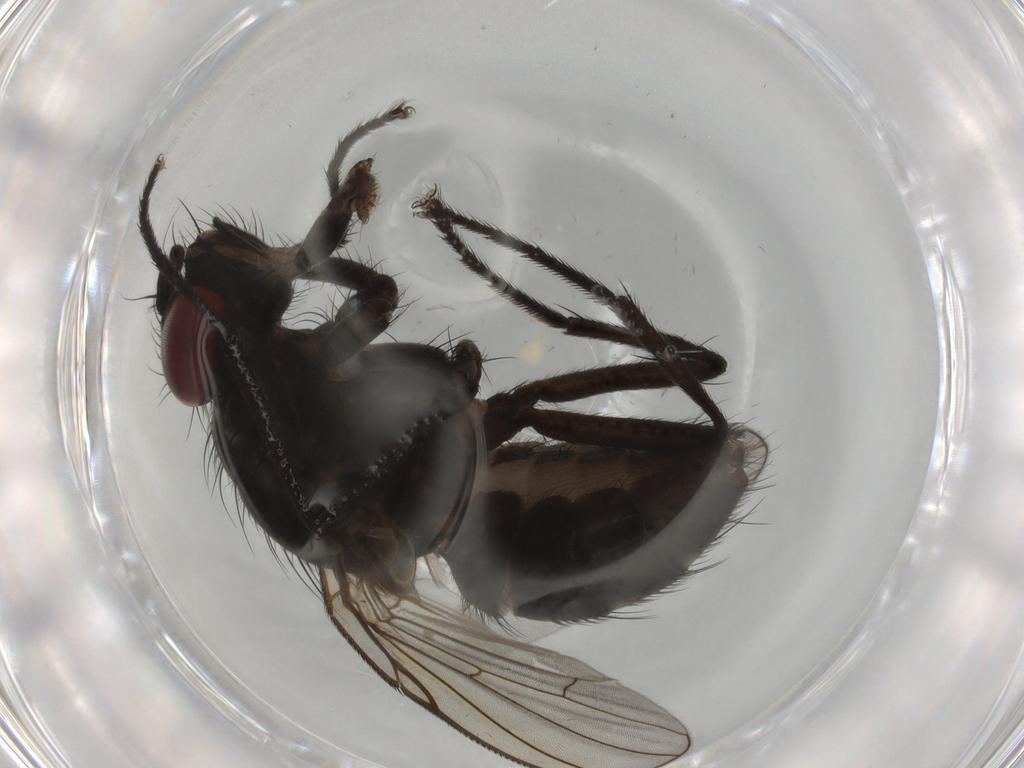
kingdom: Animalia
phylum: Arthropoda
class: Insecta
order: Diptera
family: Muscidae
